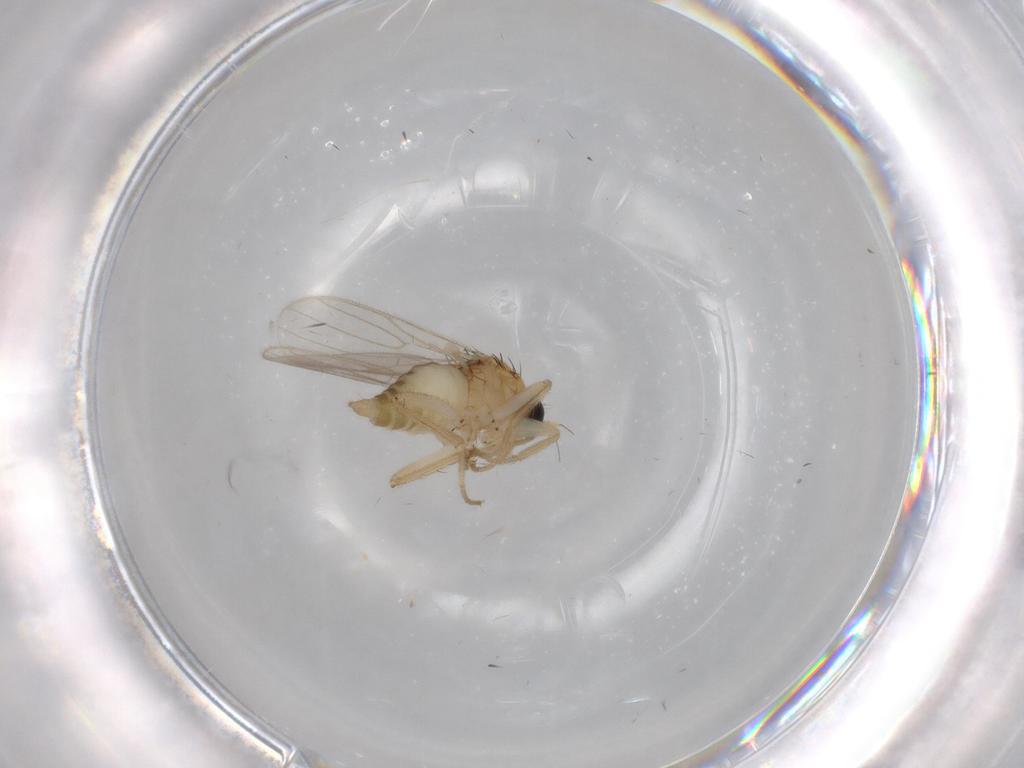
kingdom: Animalia
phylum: Arthropoda
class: Insecta
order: Diptera
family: Hybotidae
